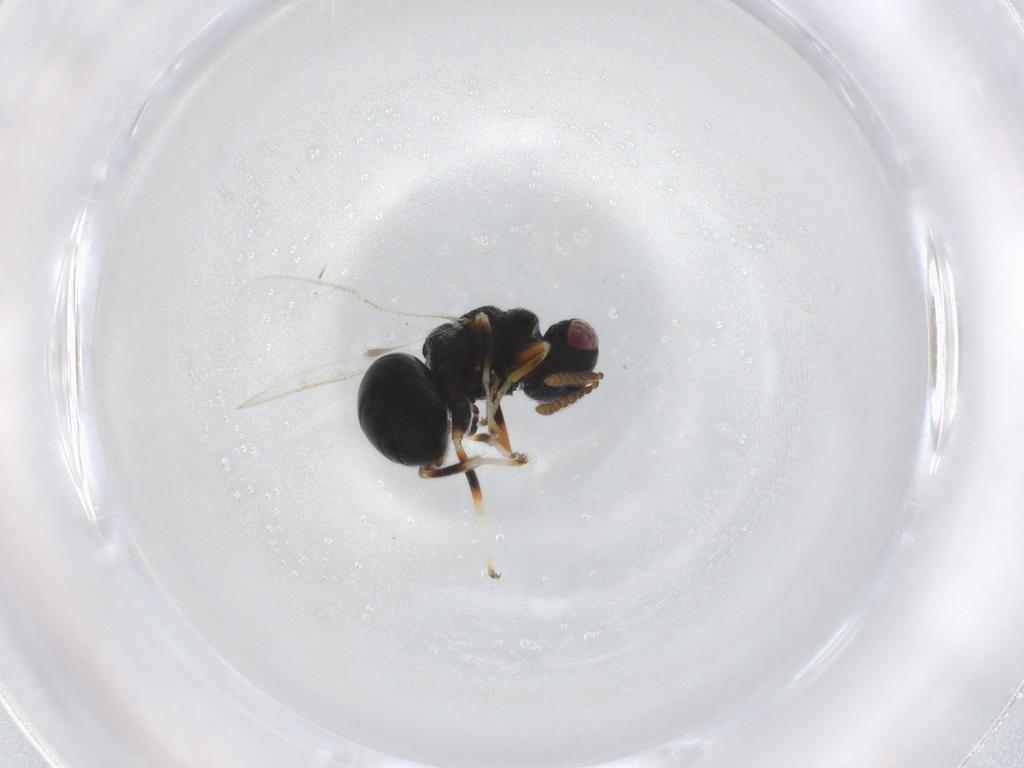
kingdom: Animalia
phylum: Arthropoda
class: Insecta
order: Hymenoptera
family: Eurytomidae
